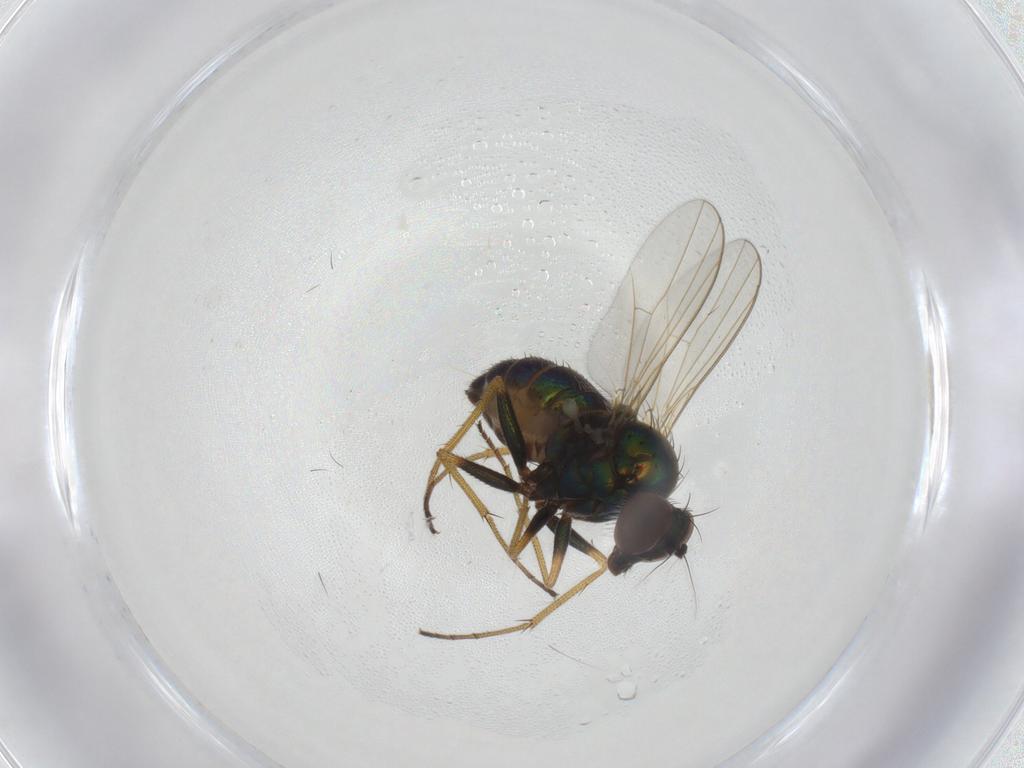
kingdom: Animalia
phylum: Arthropoda
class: Insecta
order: Diptera
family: Dolichopodidae
